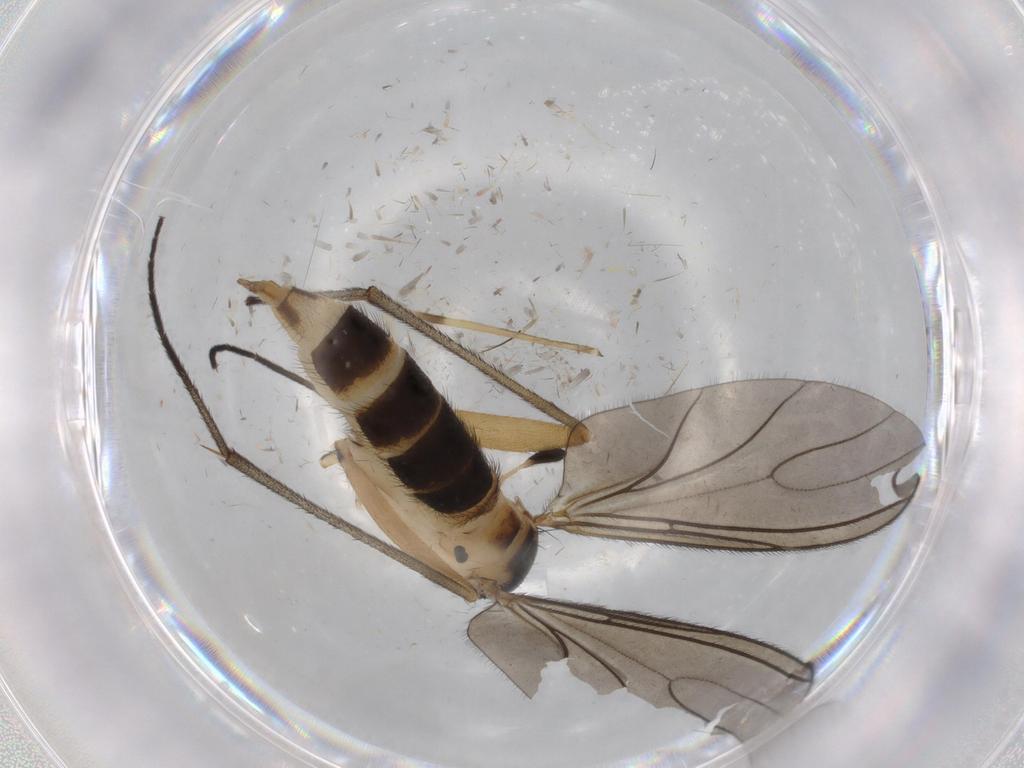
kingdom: Animalia
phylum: Arthropoda
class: Insecta
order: Diptera
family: Sciaridae
